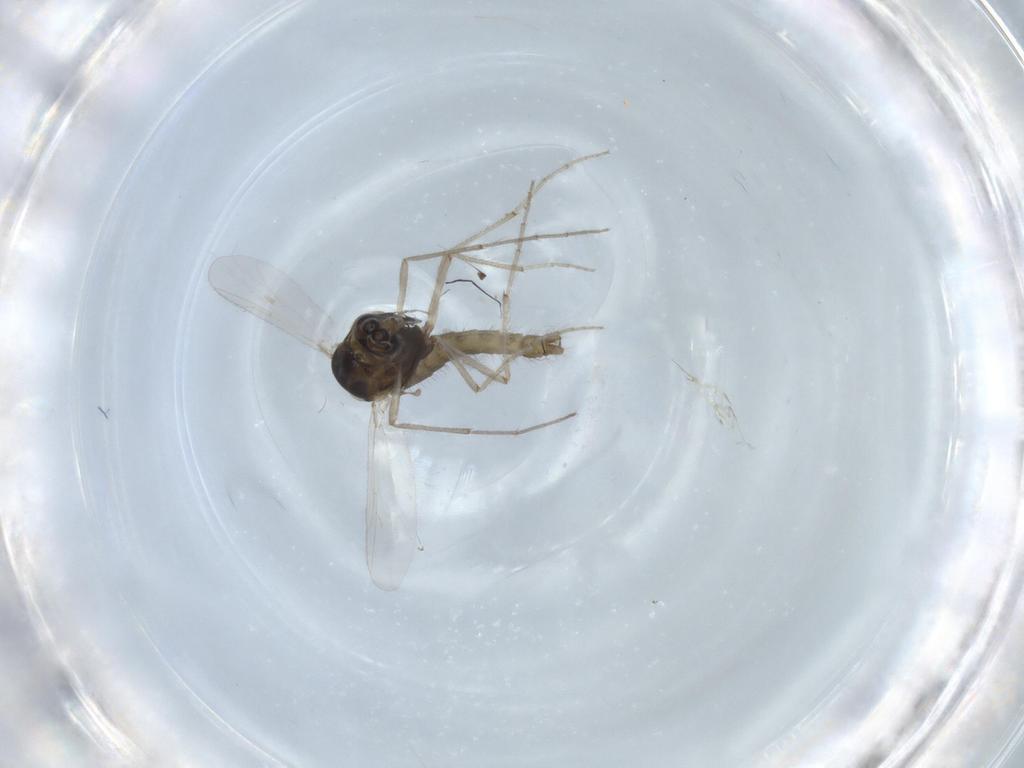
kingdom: Animalia
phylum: Arthropoda
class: Insecta
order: Diptera
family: Chironomidae
